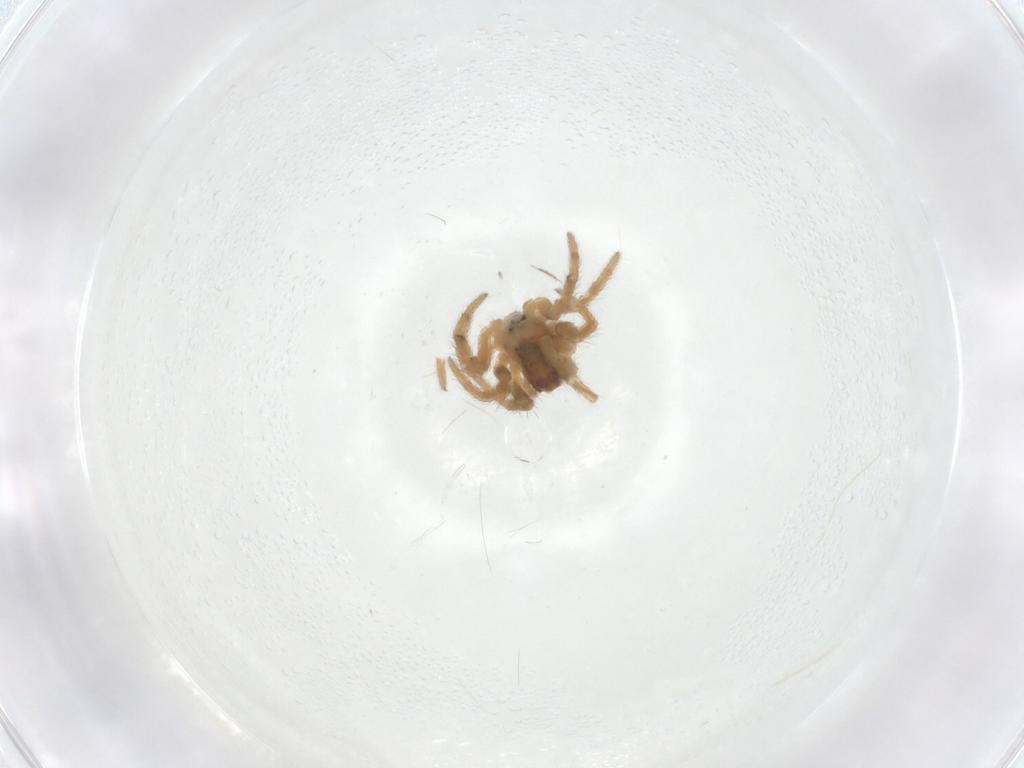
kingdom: Animalia
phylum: Arthropoda
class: Arachnida
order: Araneae
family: Araneidae
